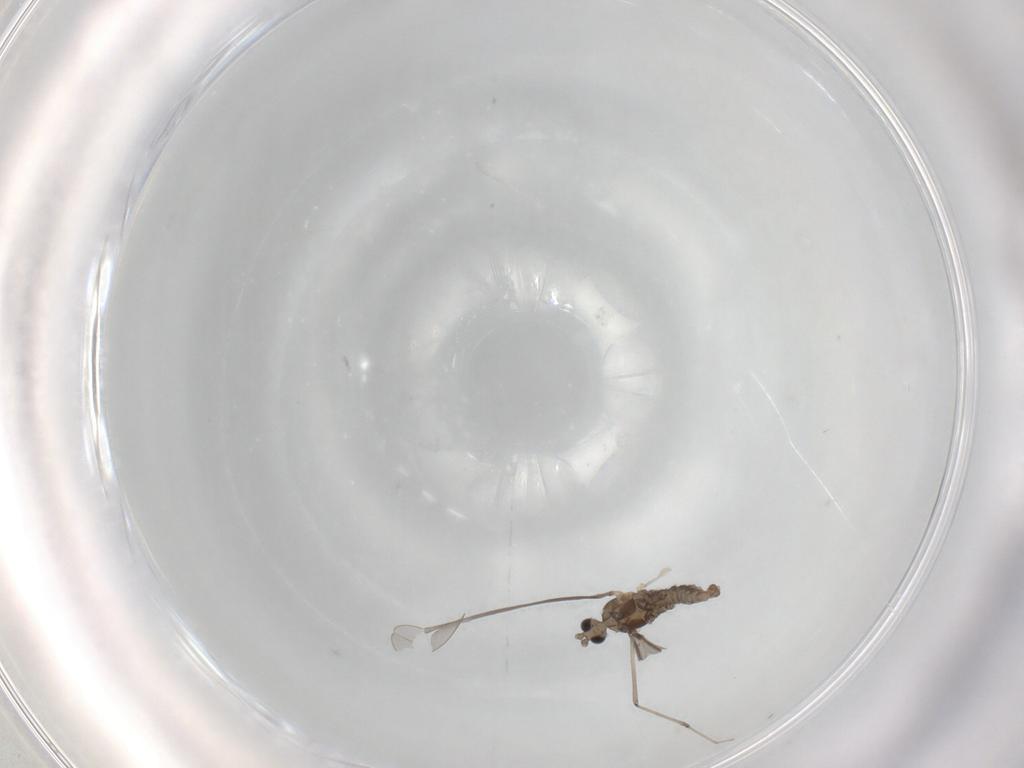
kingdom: Animalia
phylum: Arthropoda
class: Insecta
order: Diptera
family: Cecidomyiidae
